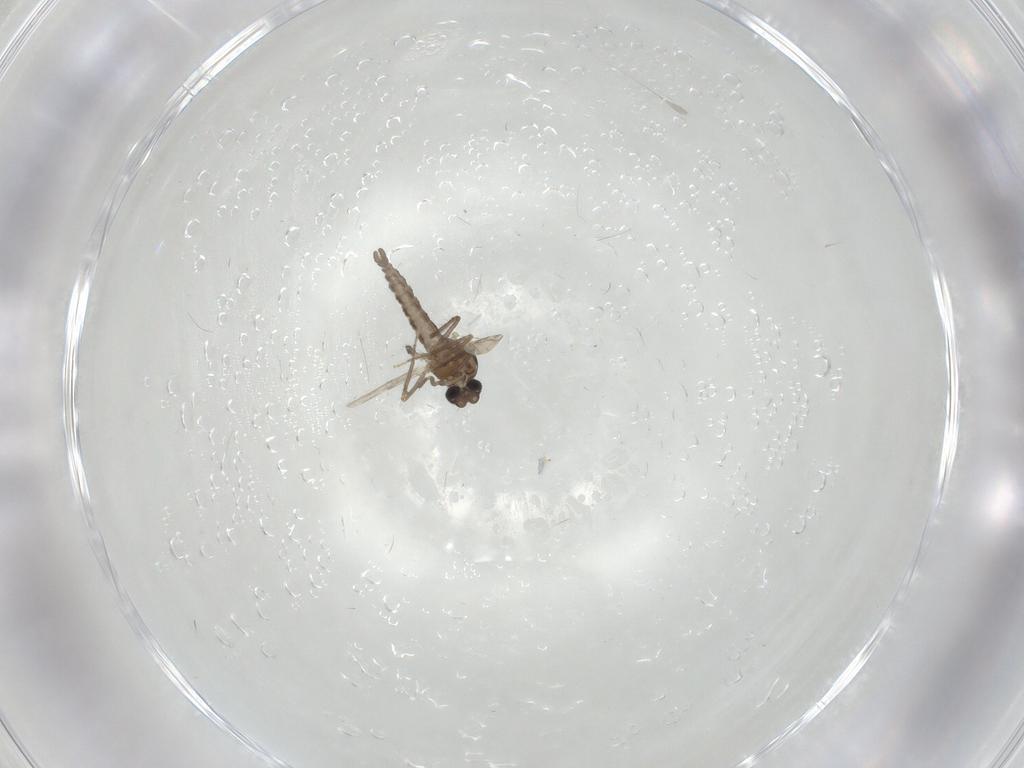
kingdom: Animalia
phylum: Arthropoda
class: Insecta
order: Diptera
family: Ceratopogonidae
